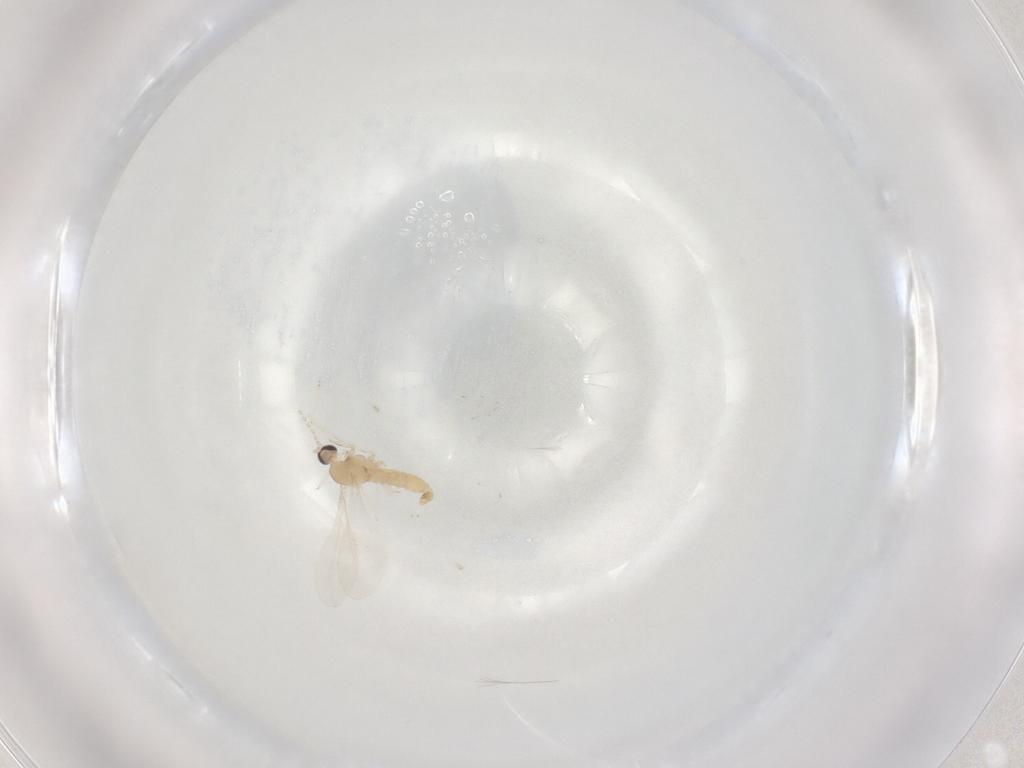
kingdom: Animalia
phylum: Arthropoda
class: Insecta
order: Diptera
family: Cecidomyiidae
